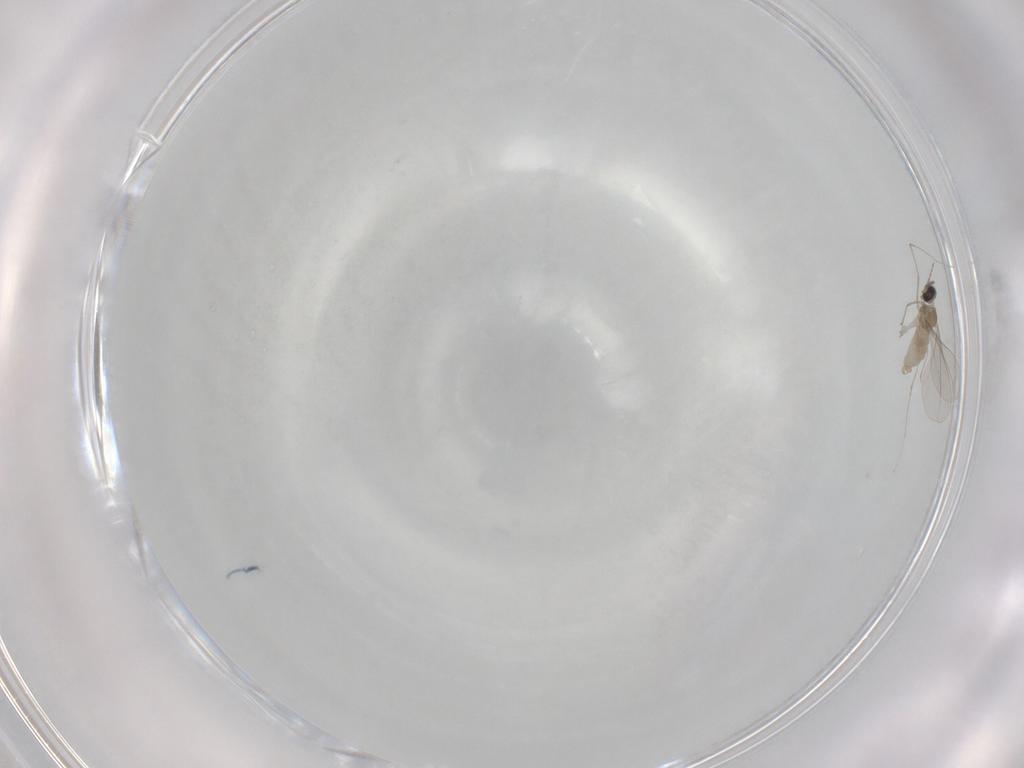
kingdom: Animalia
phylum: Arthropoda
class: Insecta
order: Diptera
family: Cecidomyiidae
